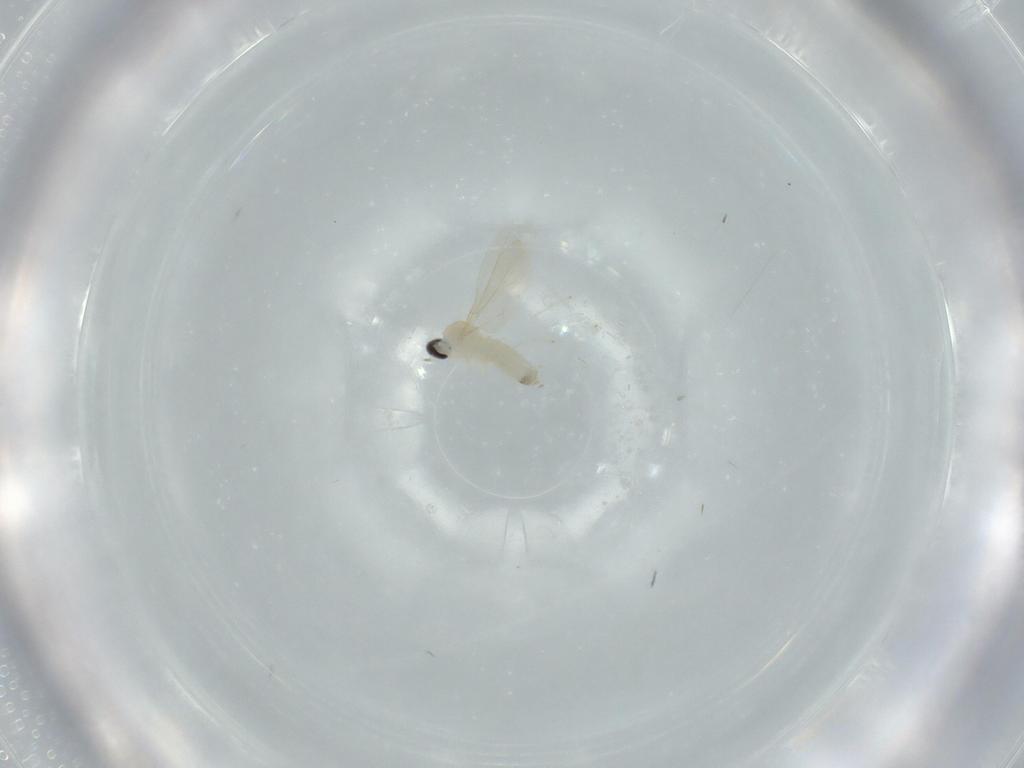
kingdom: Animalia
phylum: Arthropoda
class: Insecta
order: Diptera
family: Cecidomyiidae
